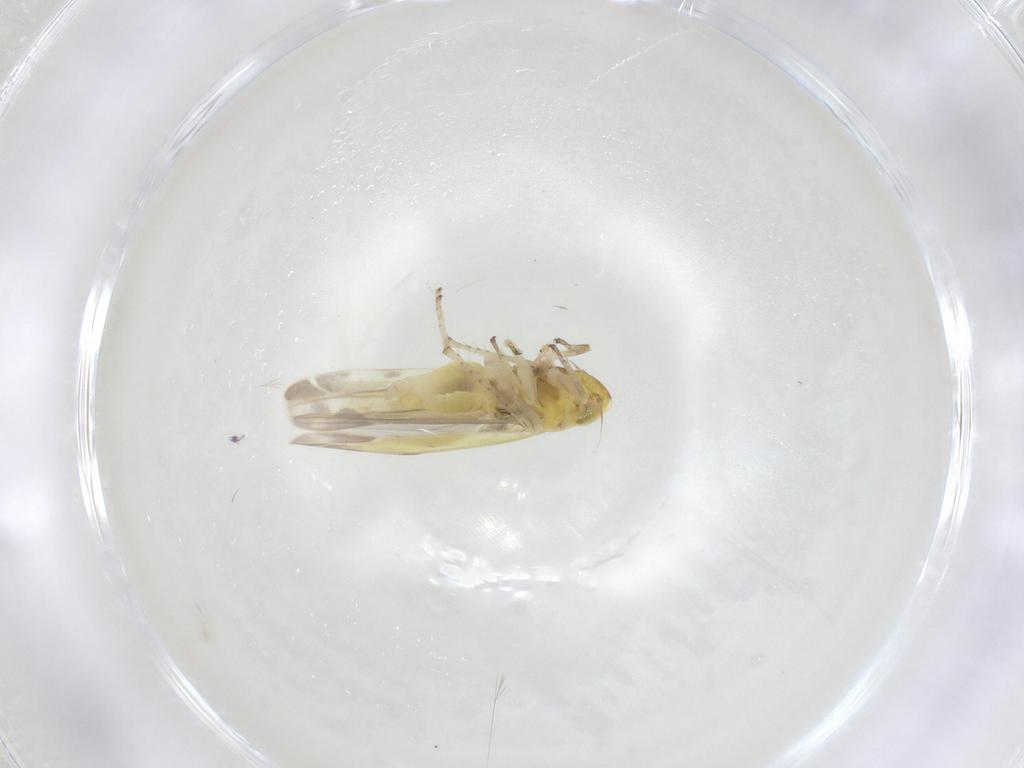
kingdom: Animalia
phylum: Arthropoda
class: Insecta
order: Hemiptera
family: Cicadellidae
